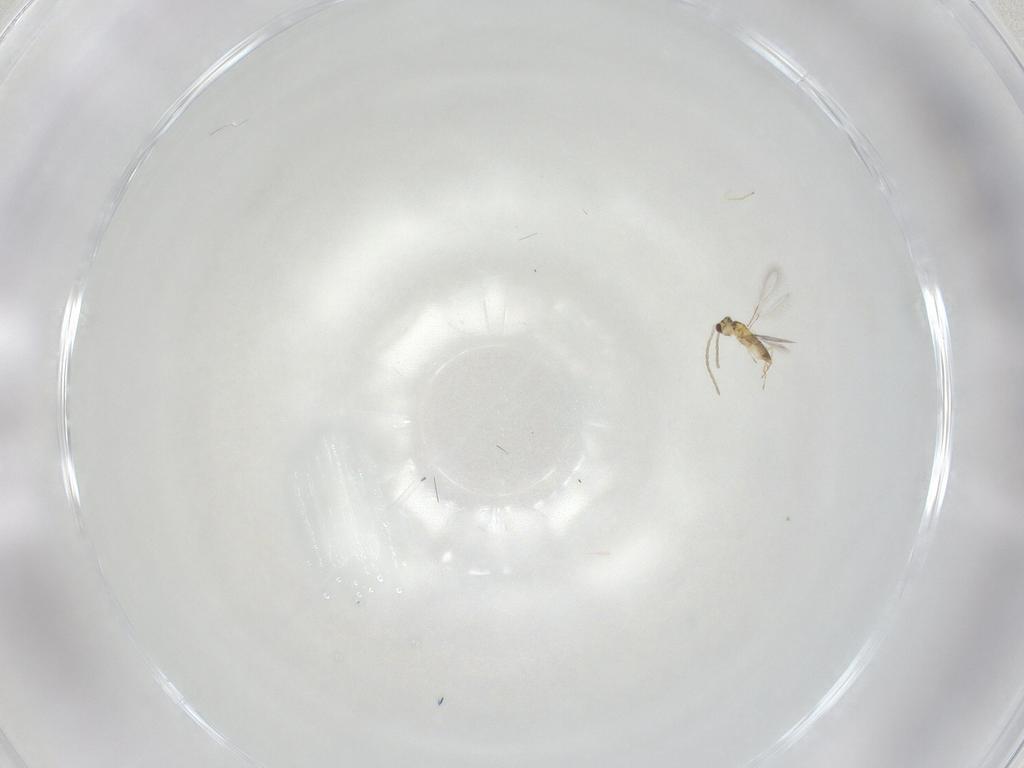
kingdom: Animalia
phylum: Arthropoda
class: Insecta
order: Hymenoptera
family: Mymaridae
